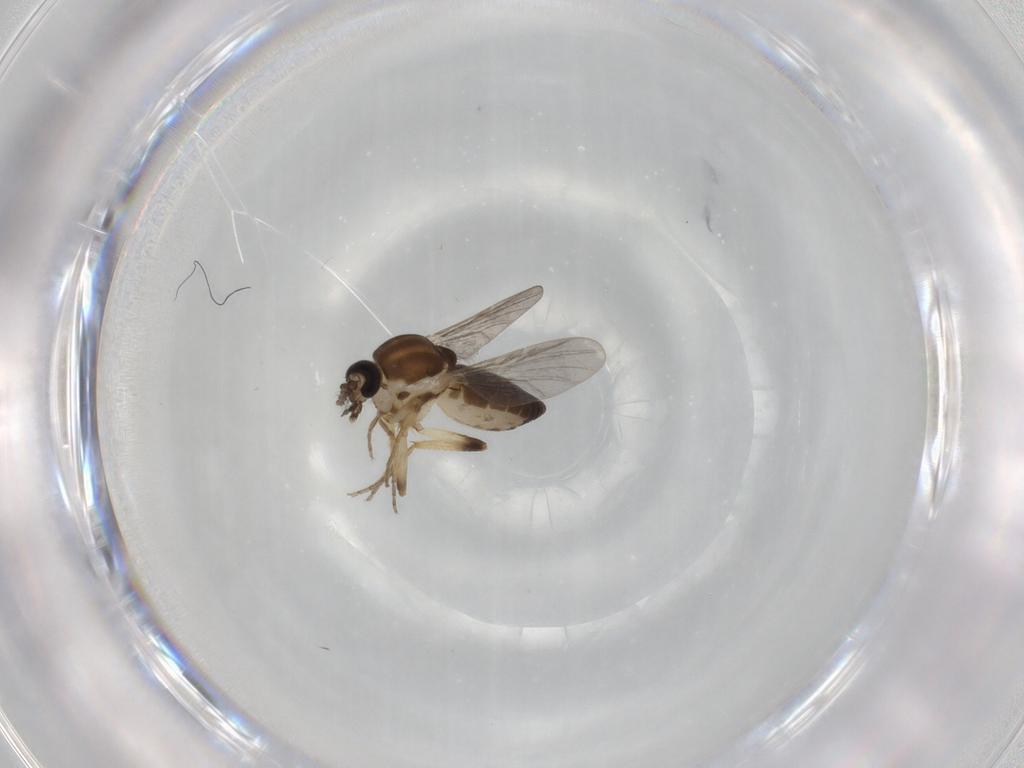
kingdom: Animalia
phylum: Arthropoda
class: Insecta
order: Diptera
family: Ceratopogonidae
